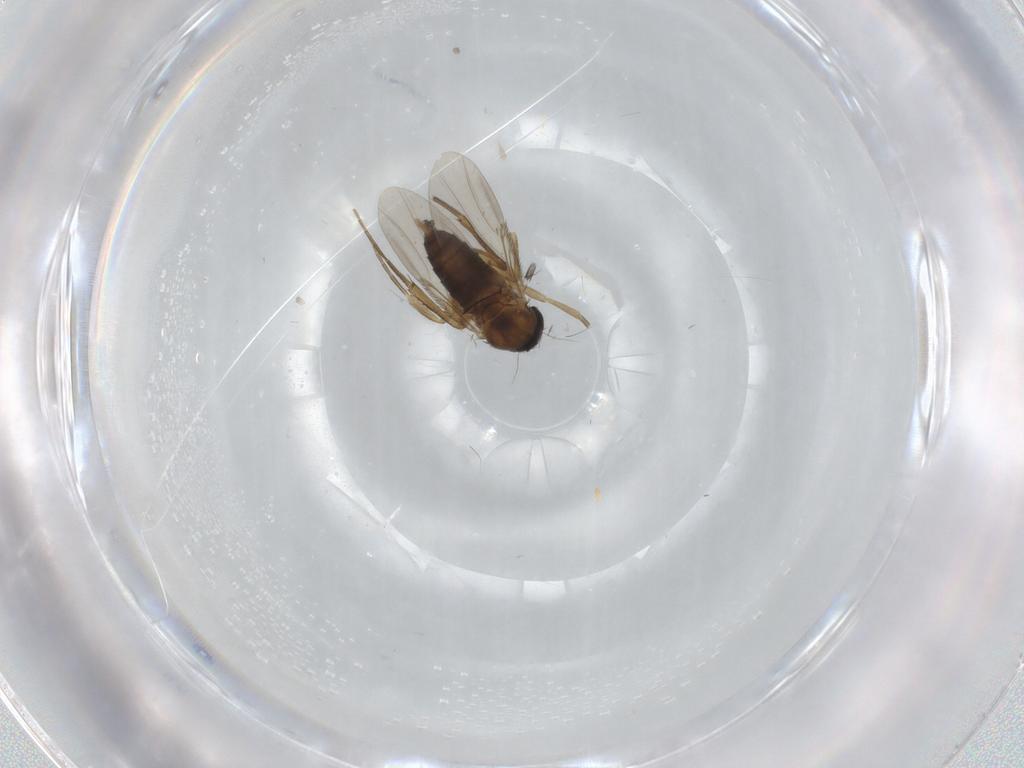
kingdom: Animalia
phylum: Arthropoda
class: Insecta
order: Diptera
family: Phoridae
